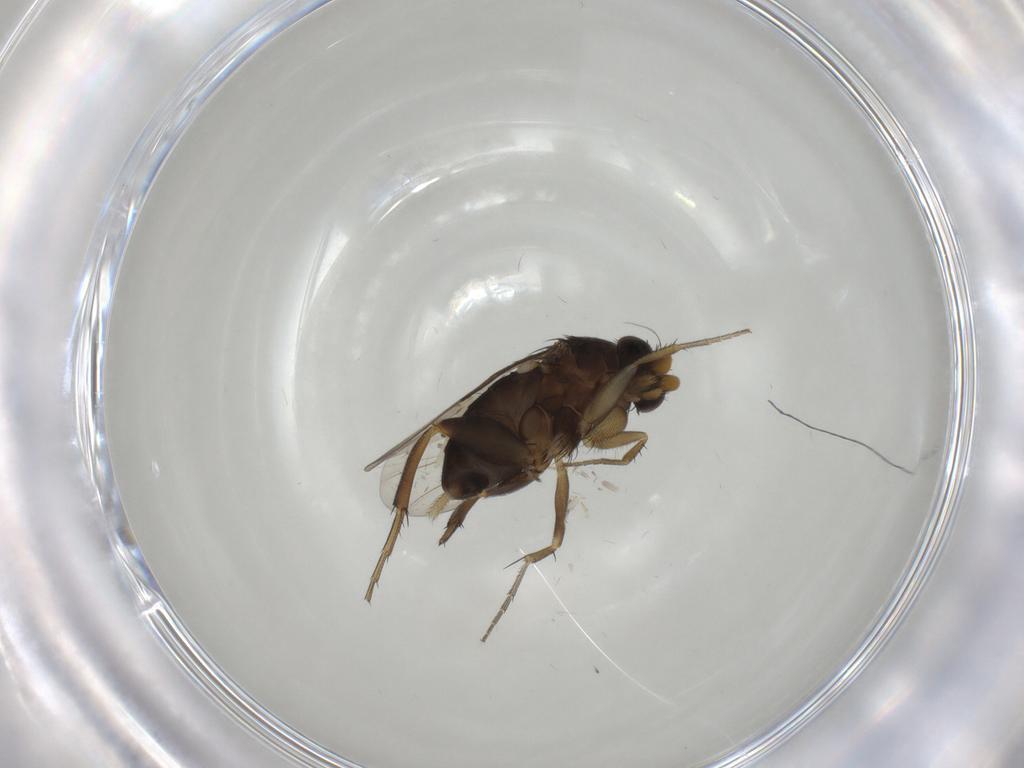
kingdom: Animalia
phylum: Arthropoda
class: Insecta
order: Diptera
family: Phoridae
